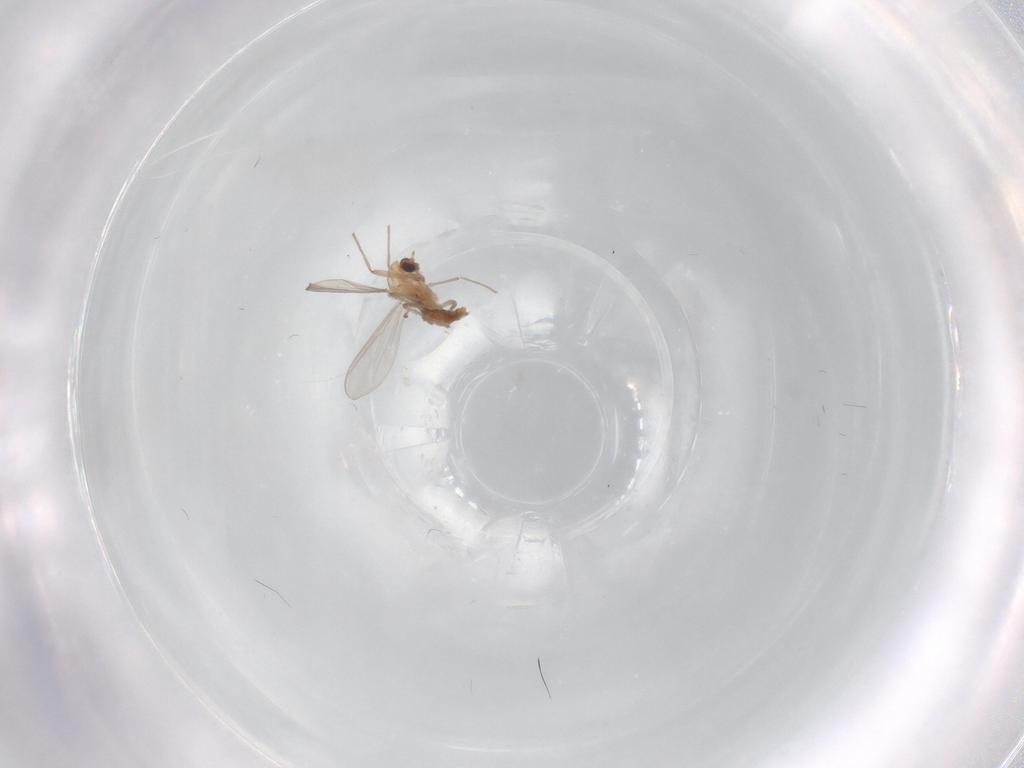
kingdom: Animalia
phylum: Arthropoda
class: Insecta
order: Diptera
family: Chironomidae
